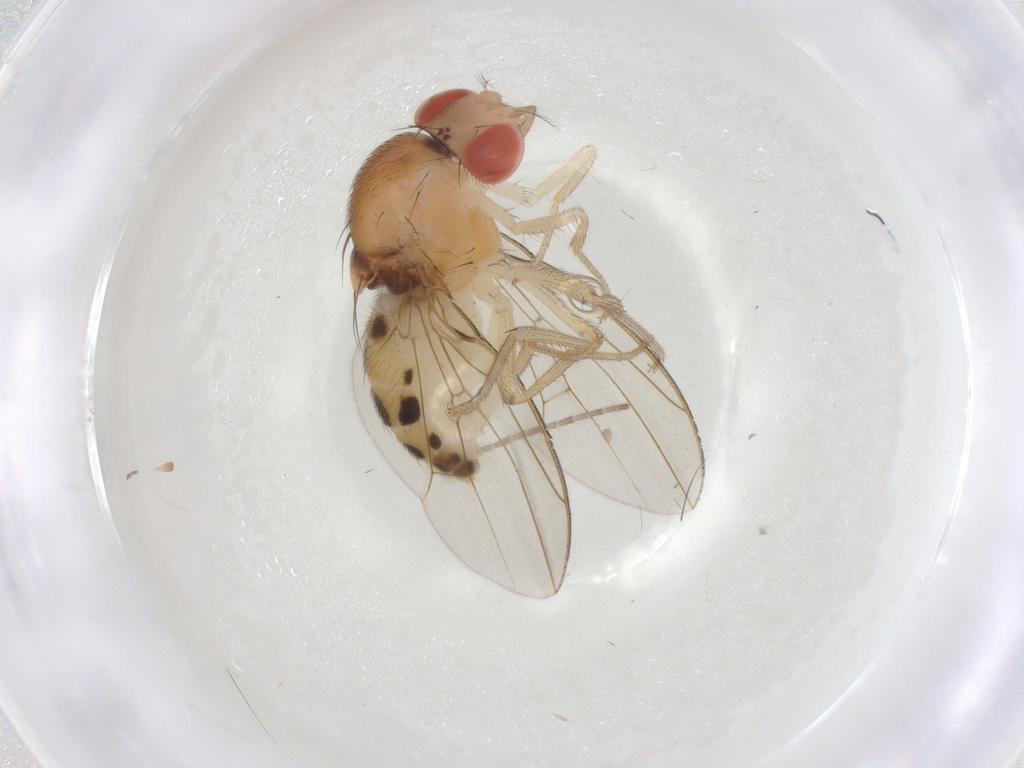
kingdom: Animalia
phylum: Arthropoda
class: Insecta
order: Diptera
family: Drosophilidae
